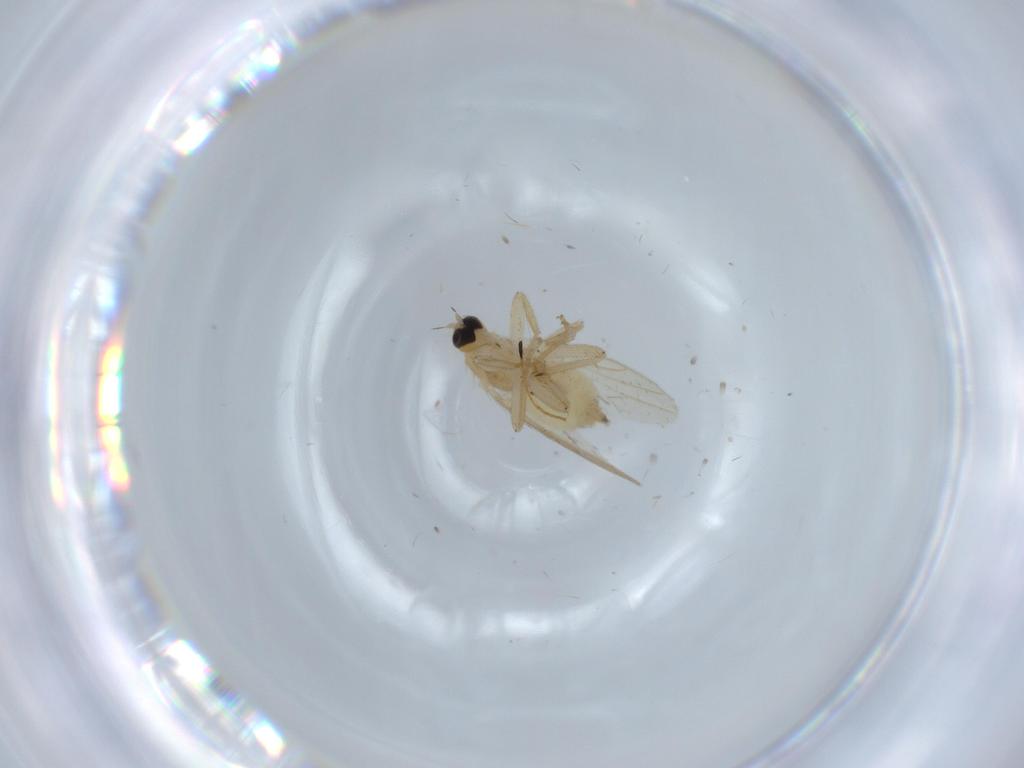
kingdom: Animalia
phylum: Arthropoda
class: Insecta
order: Diptera
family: Hybotidae
